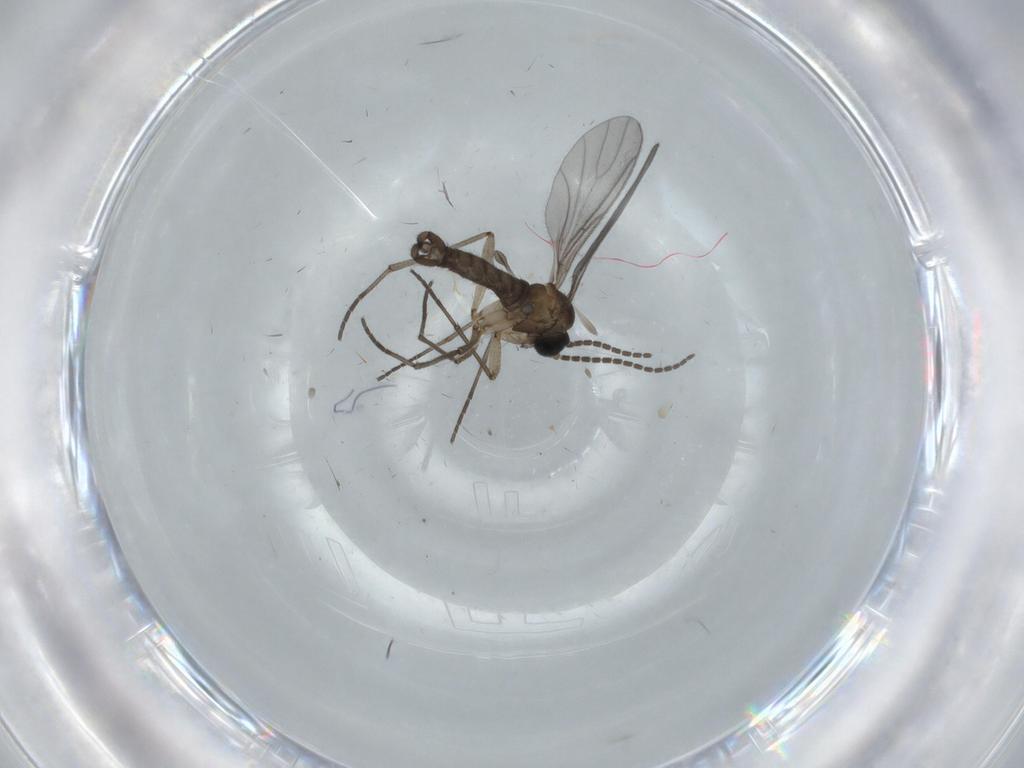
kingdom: Animalia
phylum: Arthropoda
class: Insecta
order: Diptera
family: Sciaridae
